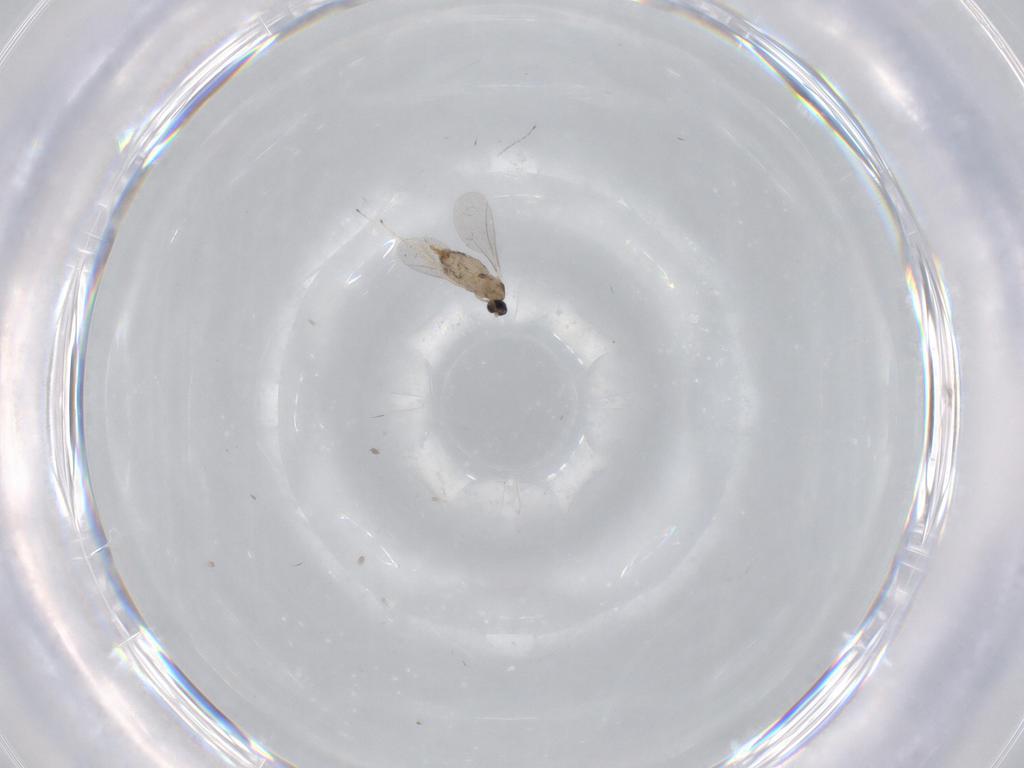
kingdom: Animalia
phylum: Arthropoda
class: Insecta
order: Diptera
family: Cecidomyiidae
